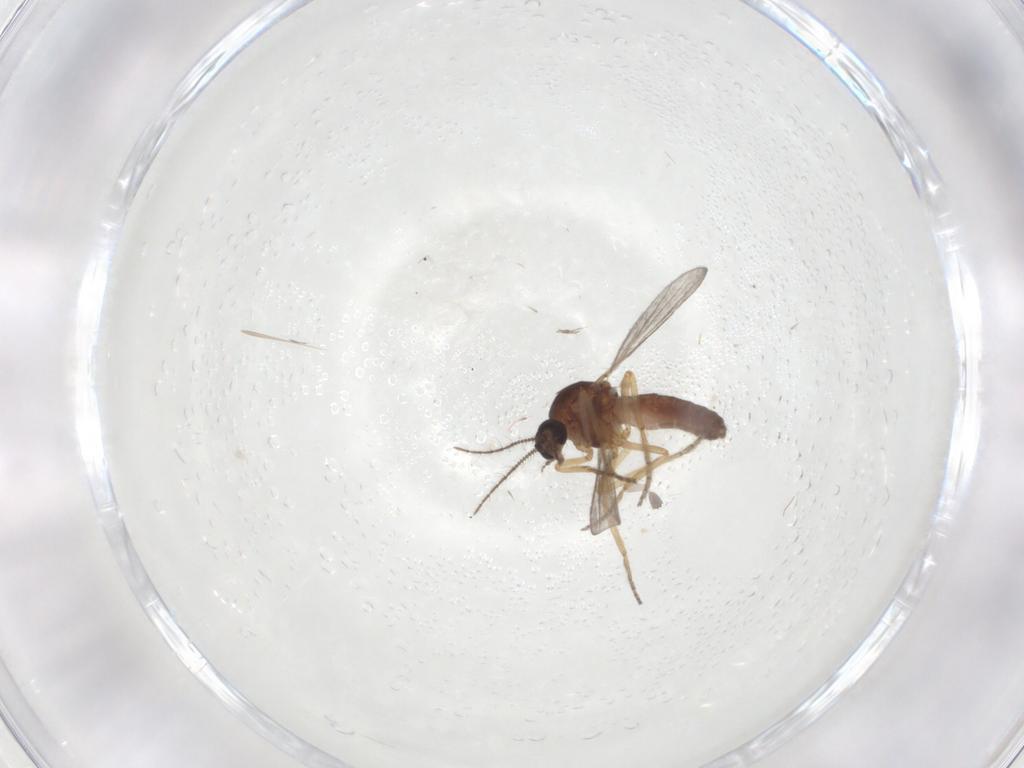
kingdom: Animalia
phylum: Arthropoda
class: Insecta
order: Diptera
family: Ceratopogonidae
